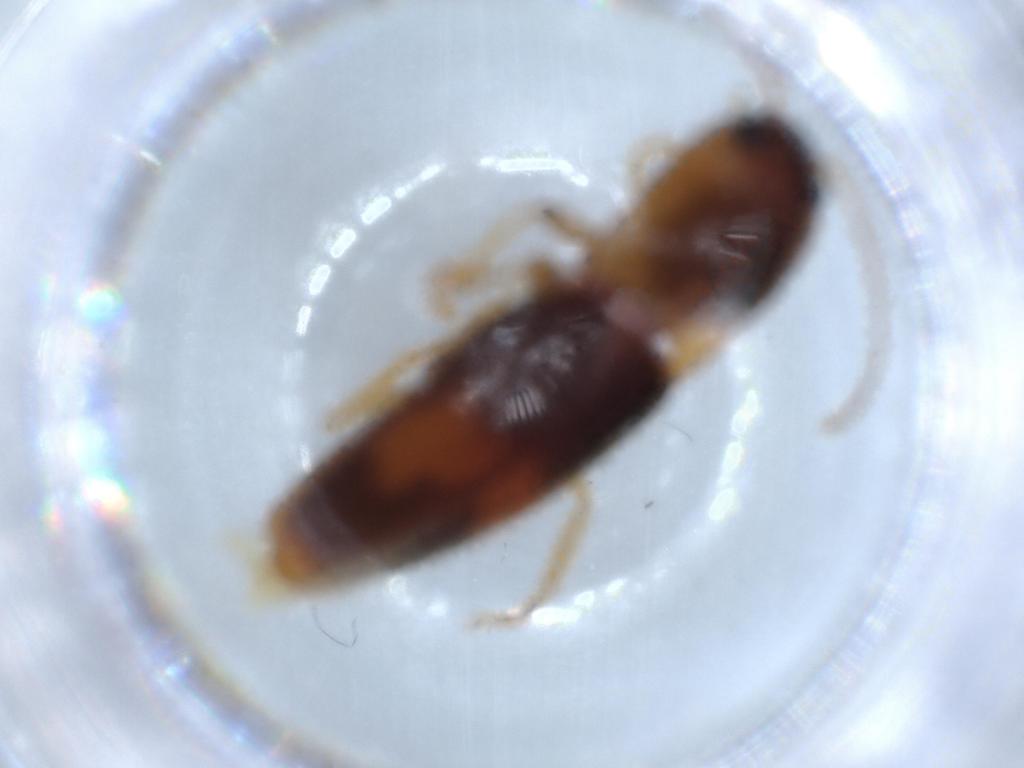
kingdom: Animalia
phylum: Arthropoda
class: Insecta
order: Coleoptera
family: Elateridae
